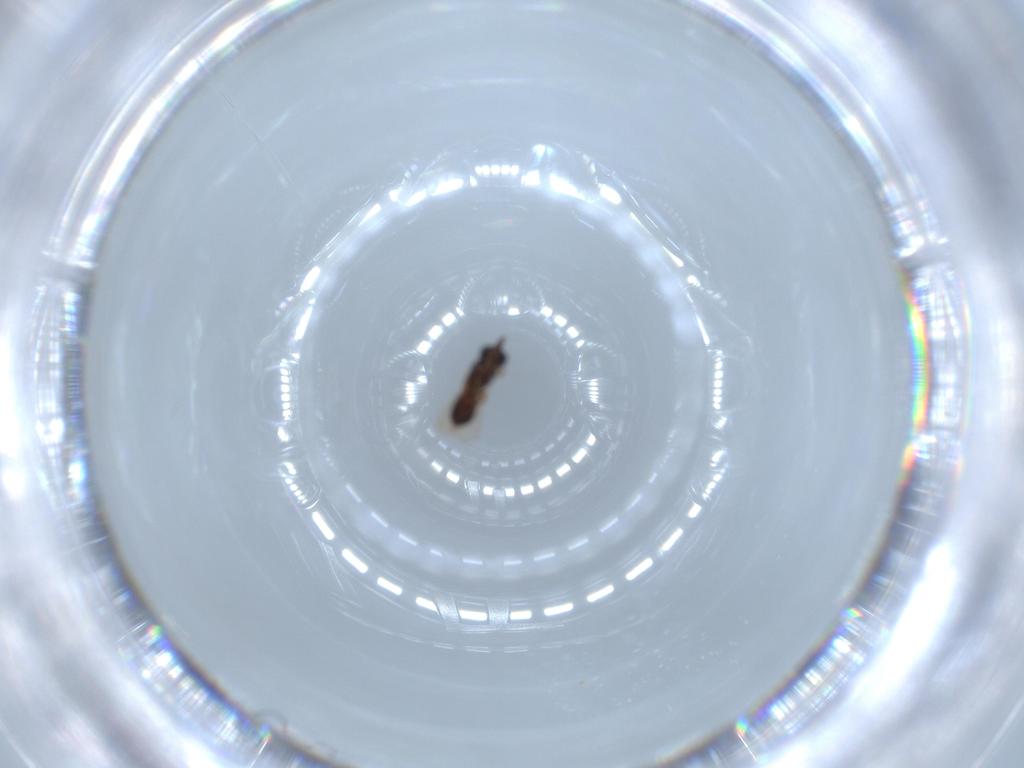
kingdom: Animalia
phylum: Arthropoda
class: Insecta
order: Hymenoptera
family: Scelionidae
